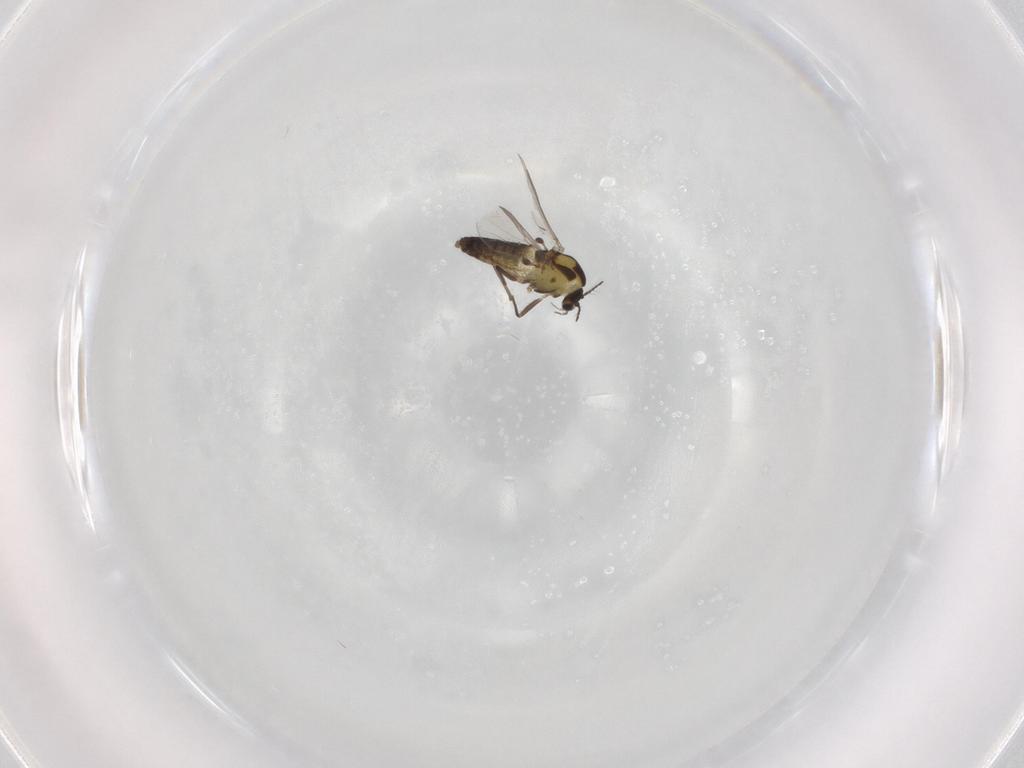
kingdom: Animalia
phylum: Arthropoda
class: Insecta
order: Diptera
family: Chironomidae
